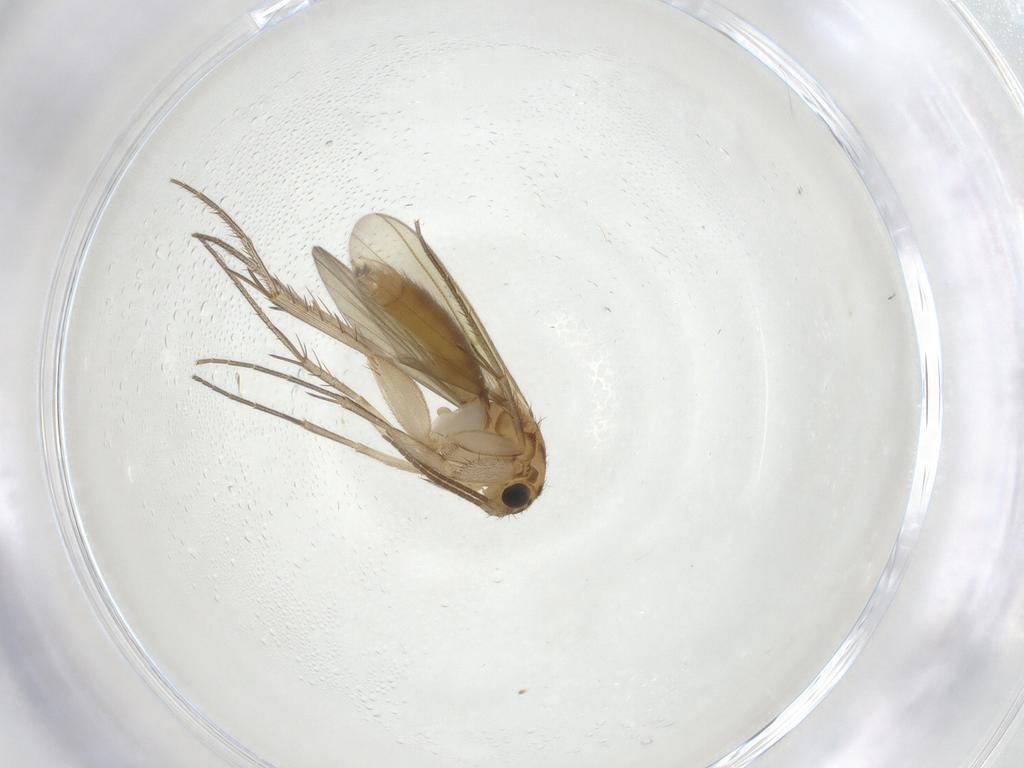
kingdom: Animalia
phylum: Arthropoda
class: Insecta
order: Diptera
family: Mycetophilidae
